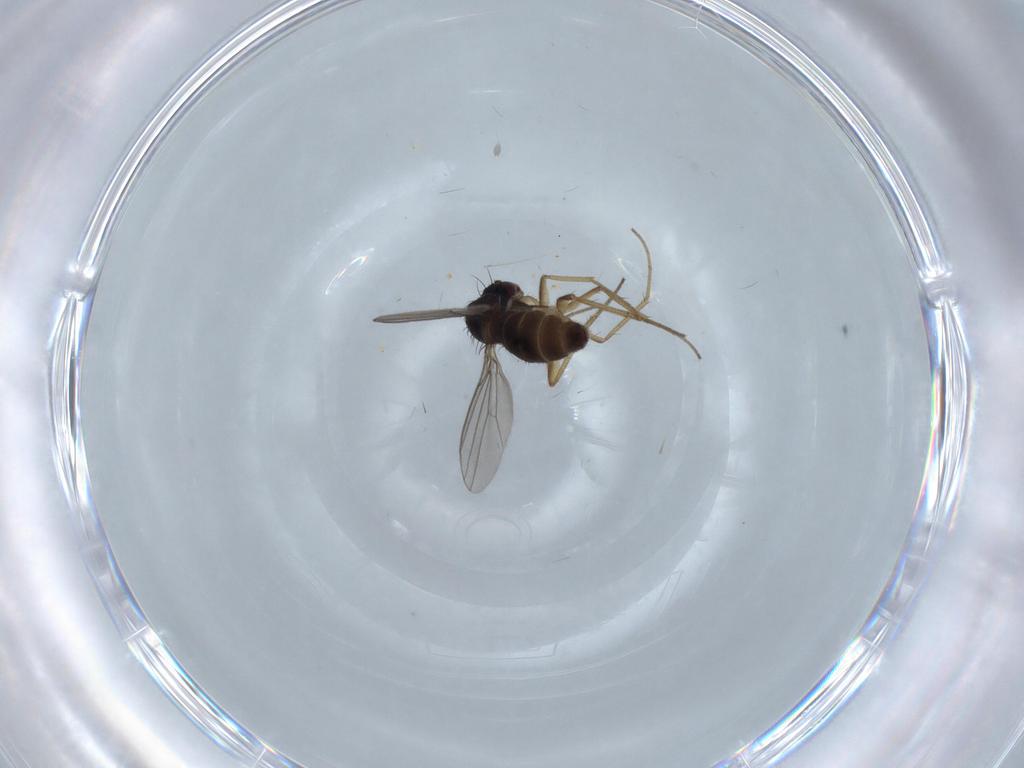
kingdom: Animalia
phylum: Arthropoda
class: Insecta
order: Diptera
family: Dolichopodidae
